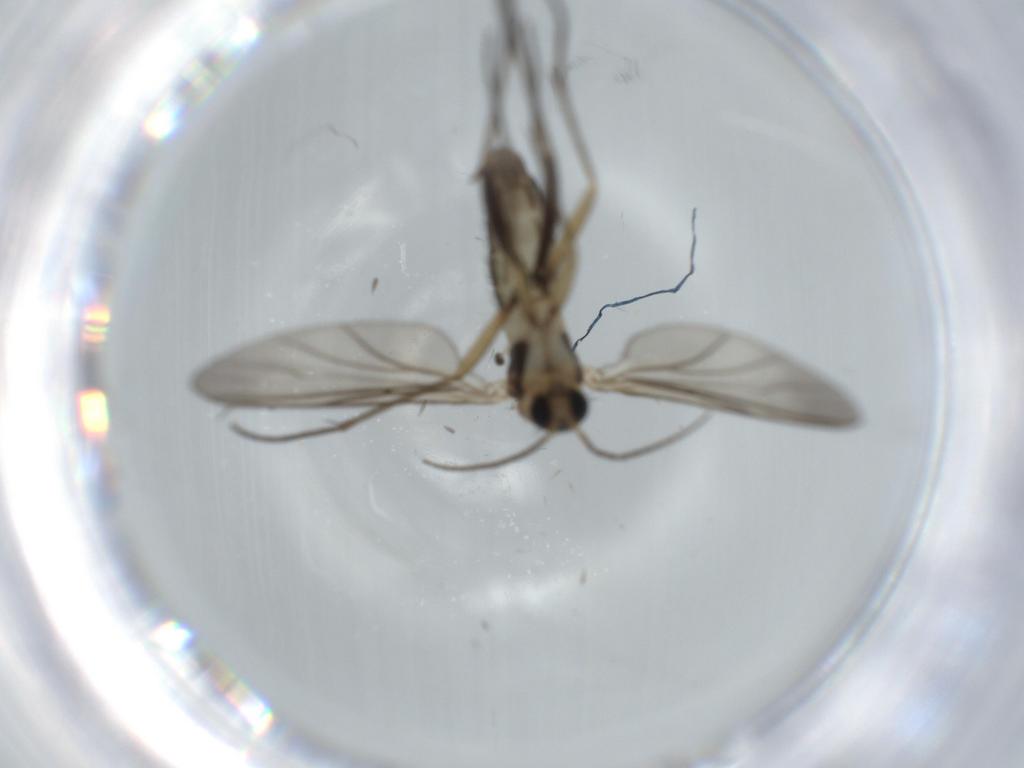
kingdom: Animalia
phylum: Arthropoda
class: Insecta
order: Diptera
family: Sciaridae
